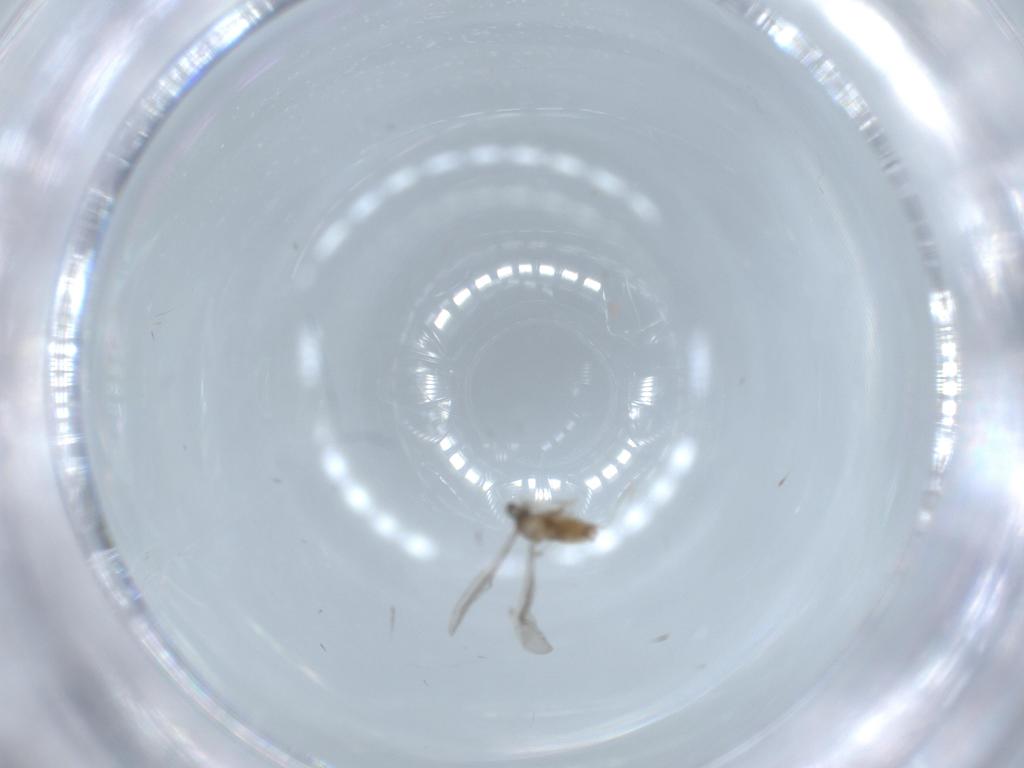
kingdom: Animalia
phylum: Arthropoda
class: Insecta
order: Diptera
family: Cecidomyiidae
